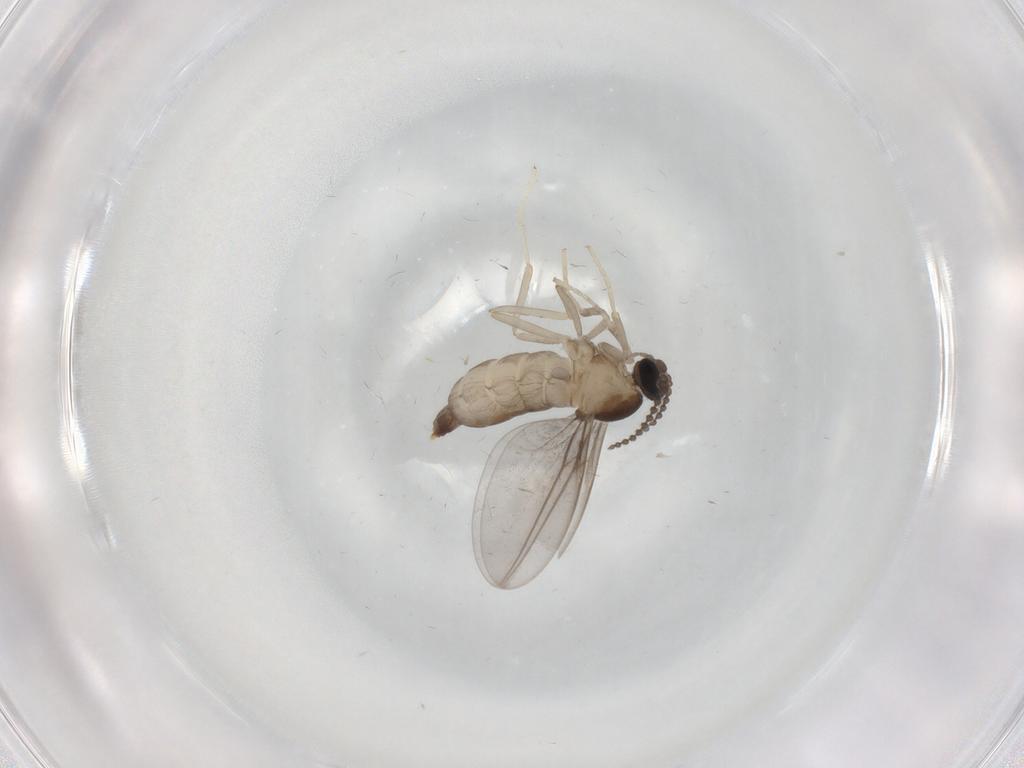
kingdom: Animalia
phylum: Arthropoda
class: Insecta
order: Diptera
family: Cecidomyiidae
